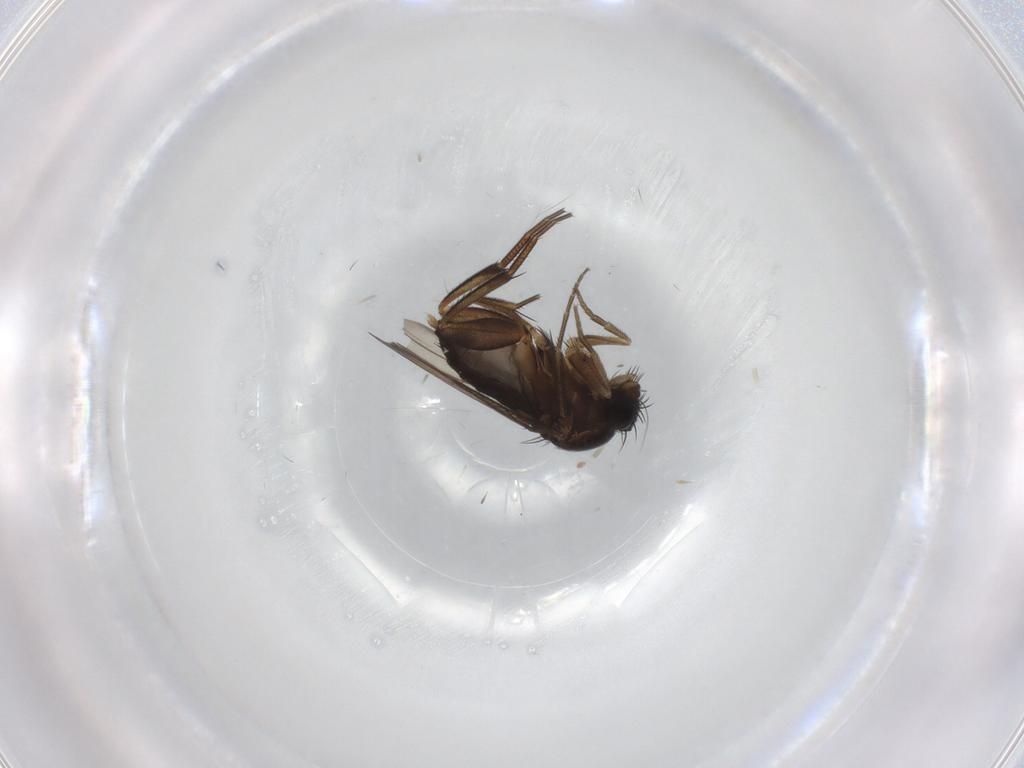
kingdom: Animalia
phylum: Arthropoda
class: Insecta
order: Diptera
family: Phoridae
